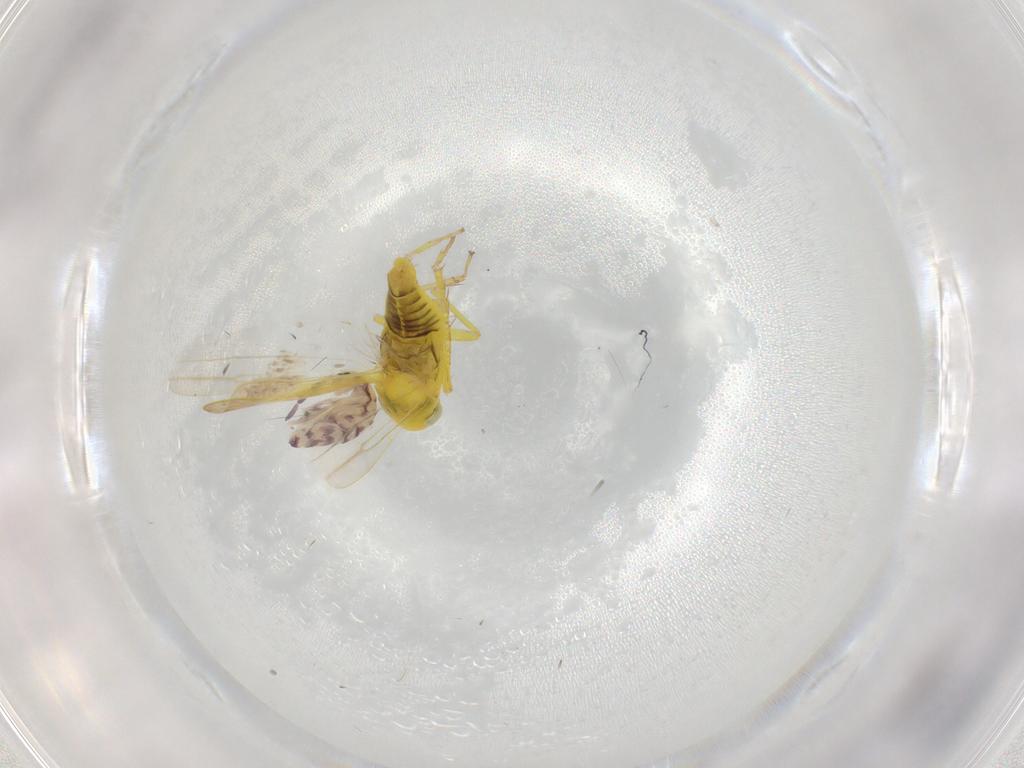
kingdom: Animalia
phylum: Arthropoda
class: Collembola
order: Entomobryomorpha
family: Entomobryidae
